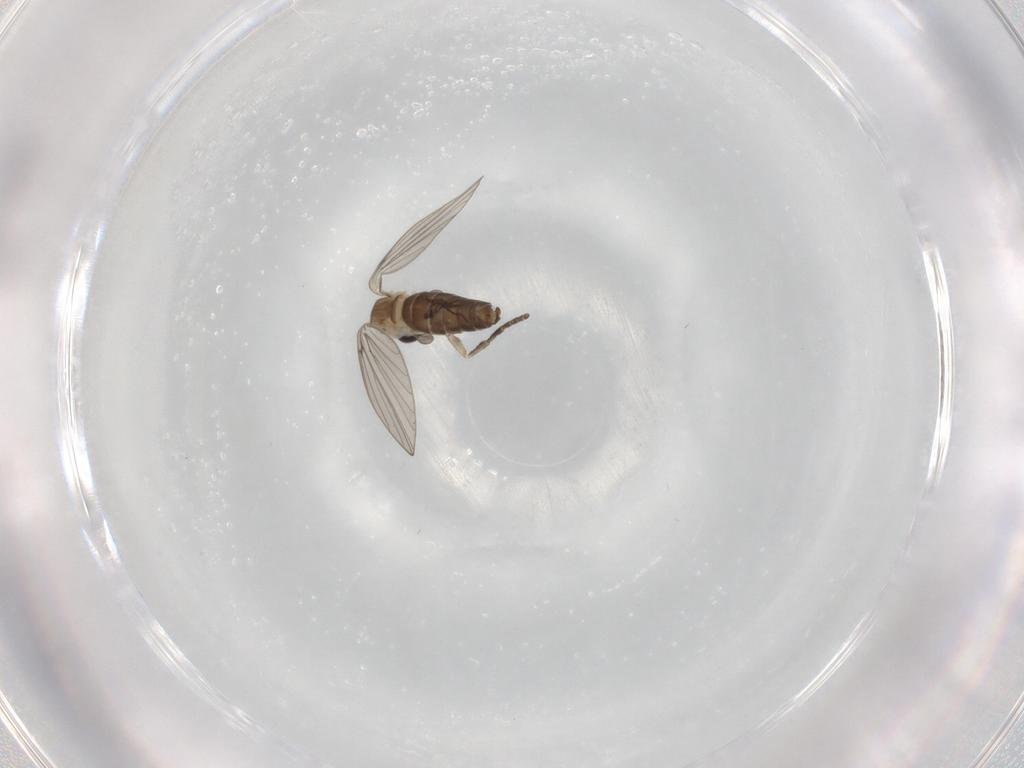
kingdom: Animalia
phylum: Arthropoda
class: Insecta
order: Diptera
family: Psychodidae
